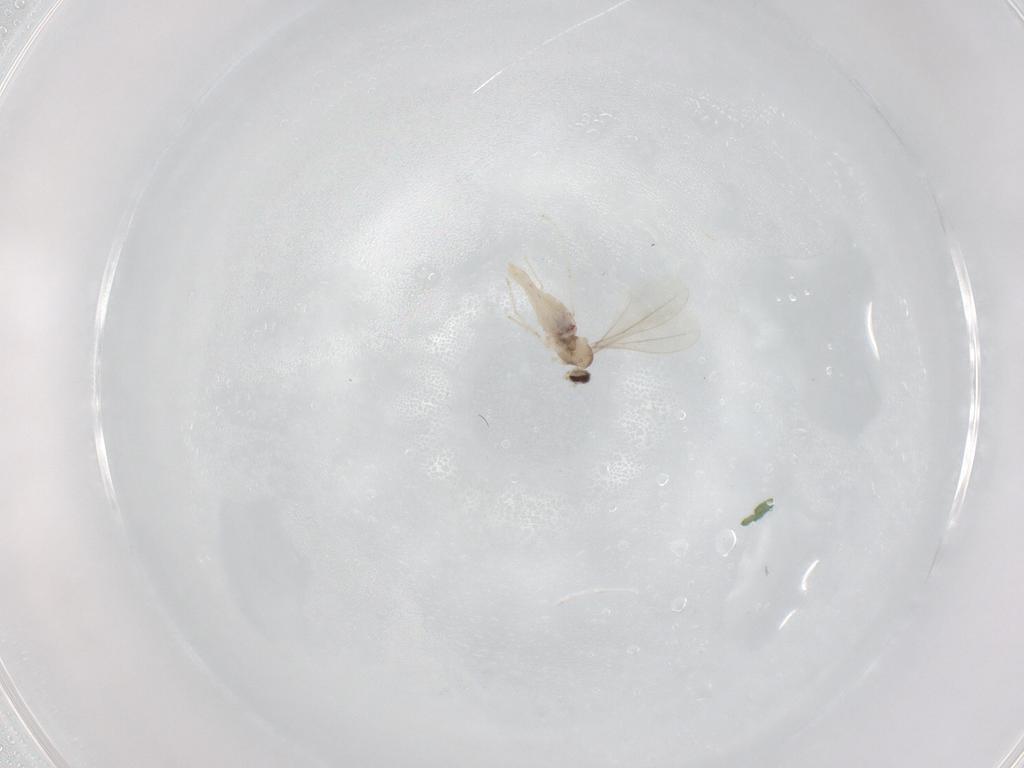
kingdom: Animalia
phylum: Arthropoda
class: Insecta
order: Diptera
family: Cecidomyiidae
